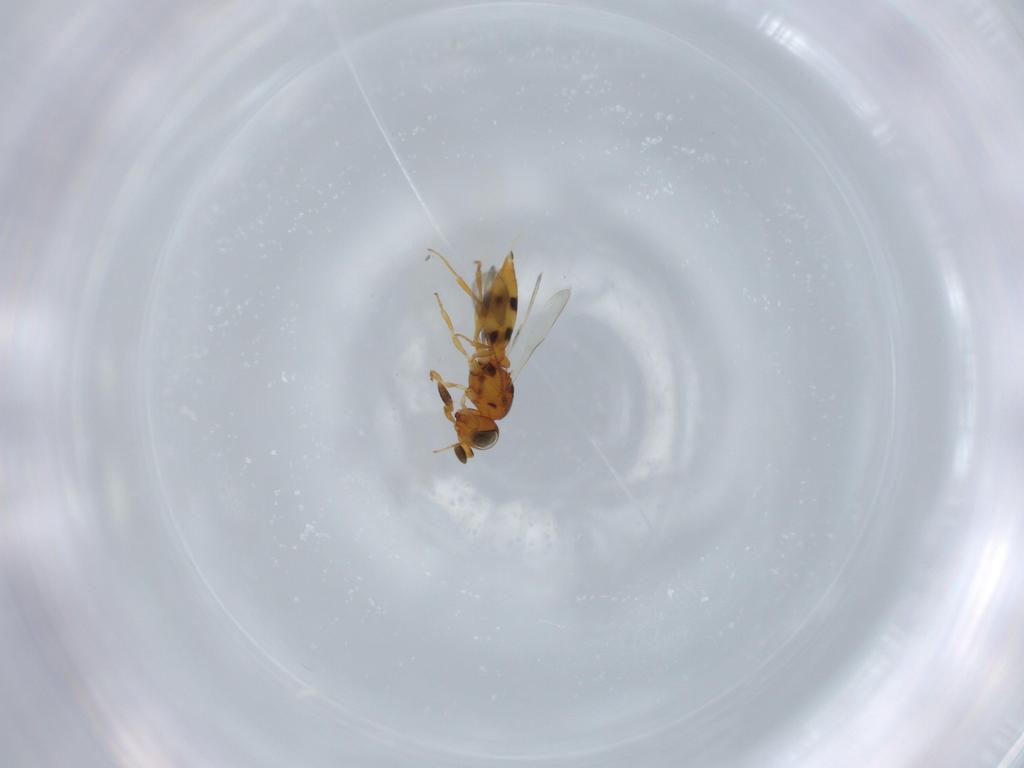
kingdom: Animalia
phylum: Arthropoda
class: Insecta
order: Hymenoptera
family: Scelionidae
